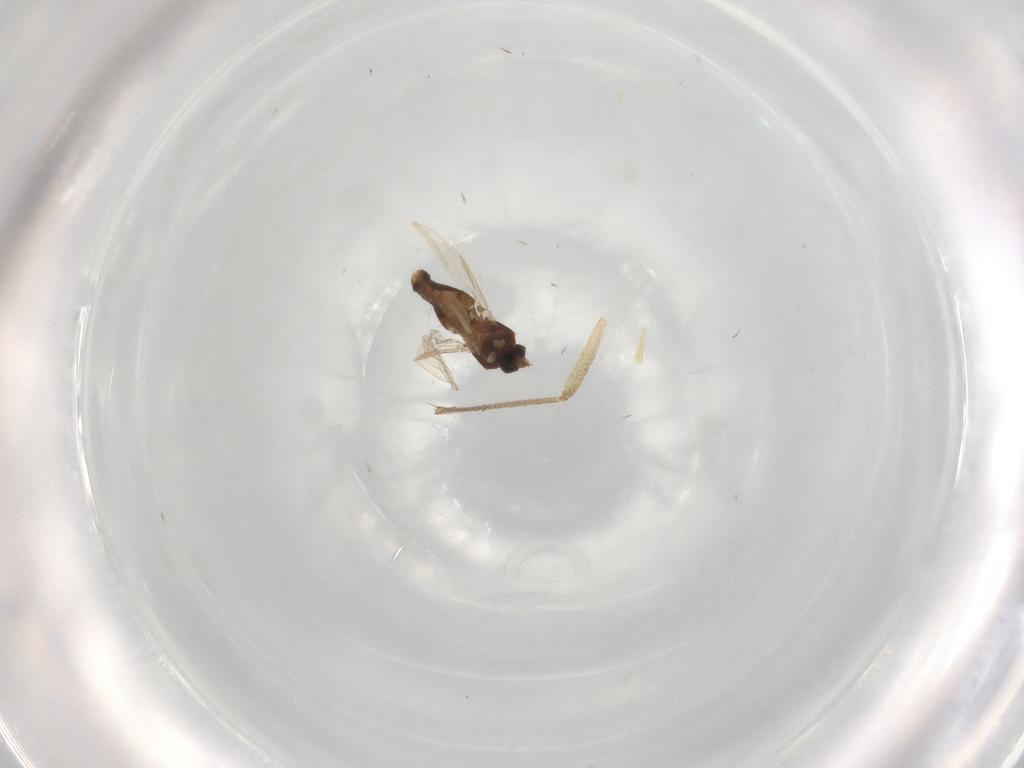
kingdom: Animalia
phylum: Arthropoda
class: Insecta
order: Diptera
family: Ceratopogonidae
